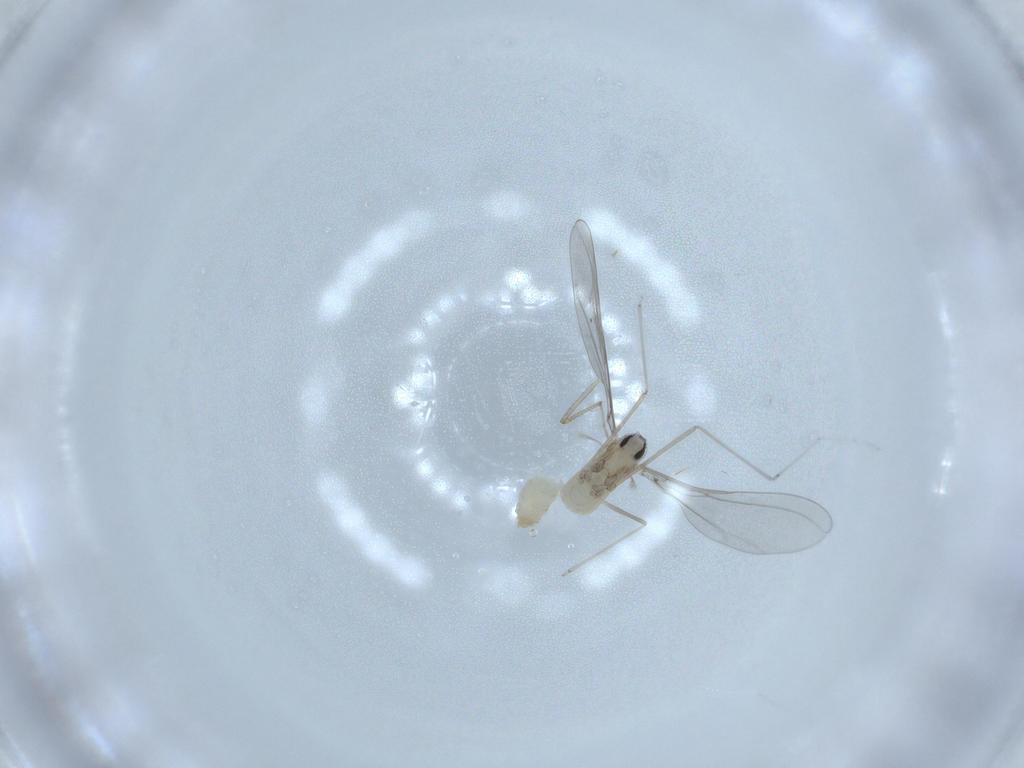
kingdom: Animalia
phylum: Arthropoda
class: Insecta
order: Diptera
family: Cecidomyiidae
